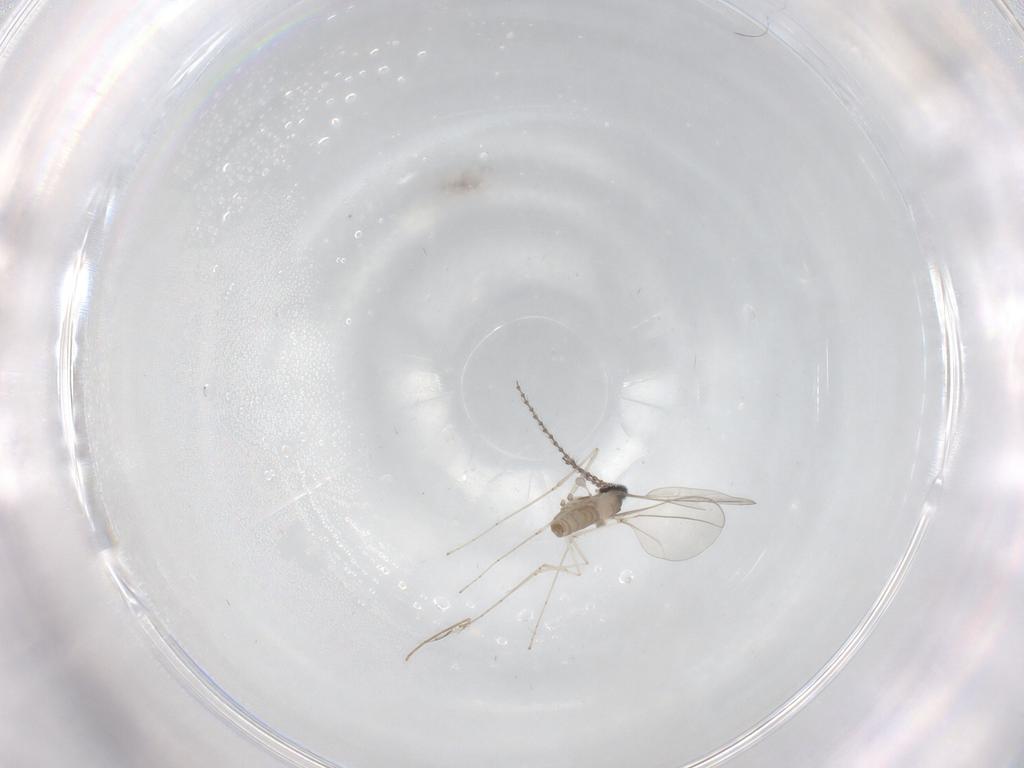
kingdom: Animalia
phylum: Arthropoda
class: Insecta
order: Diptera
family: Cecidomyiidae
